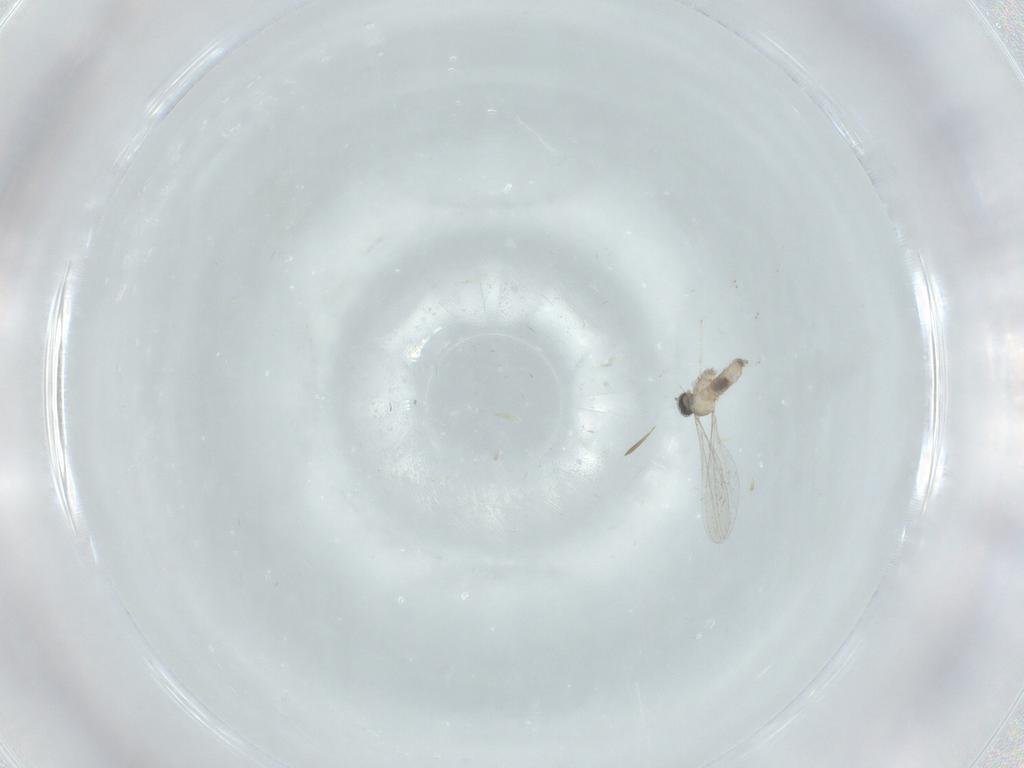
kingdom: Animalia
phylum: Arthropoda
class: Insecta
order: Diptera
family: Cecidomyiidae
